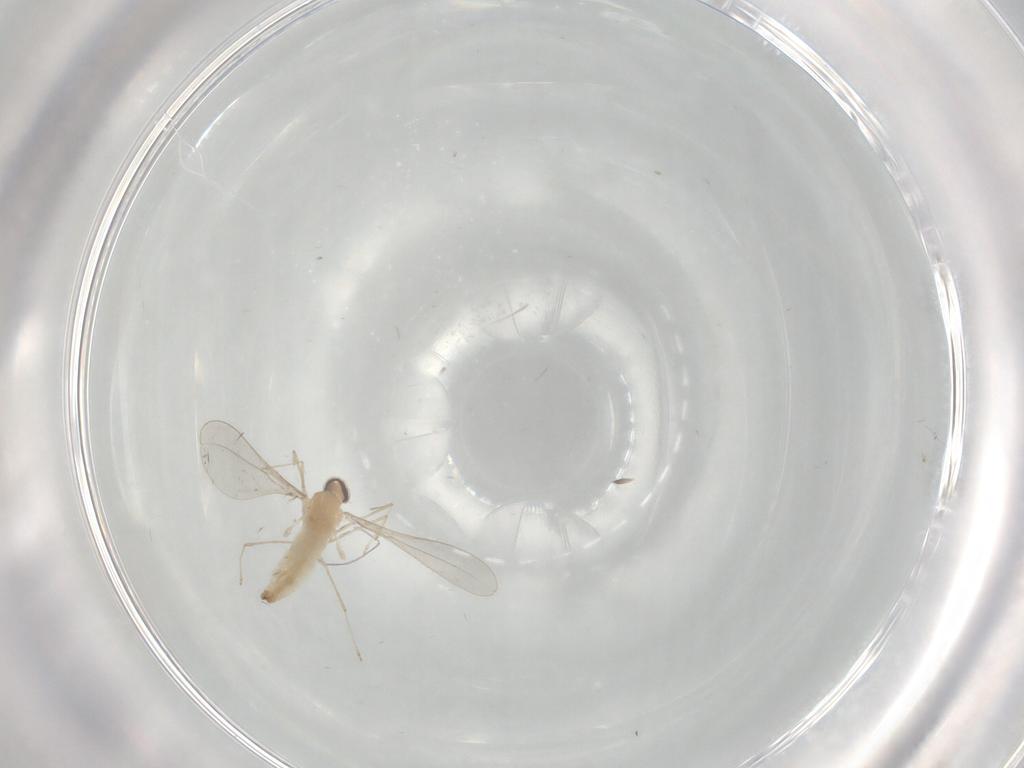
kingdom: Animalia
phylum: Arthropoda
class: Insecta
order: Diptera
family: Cecidomyiidae
